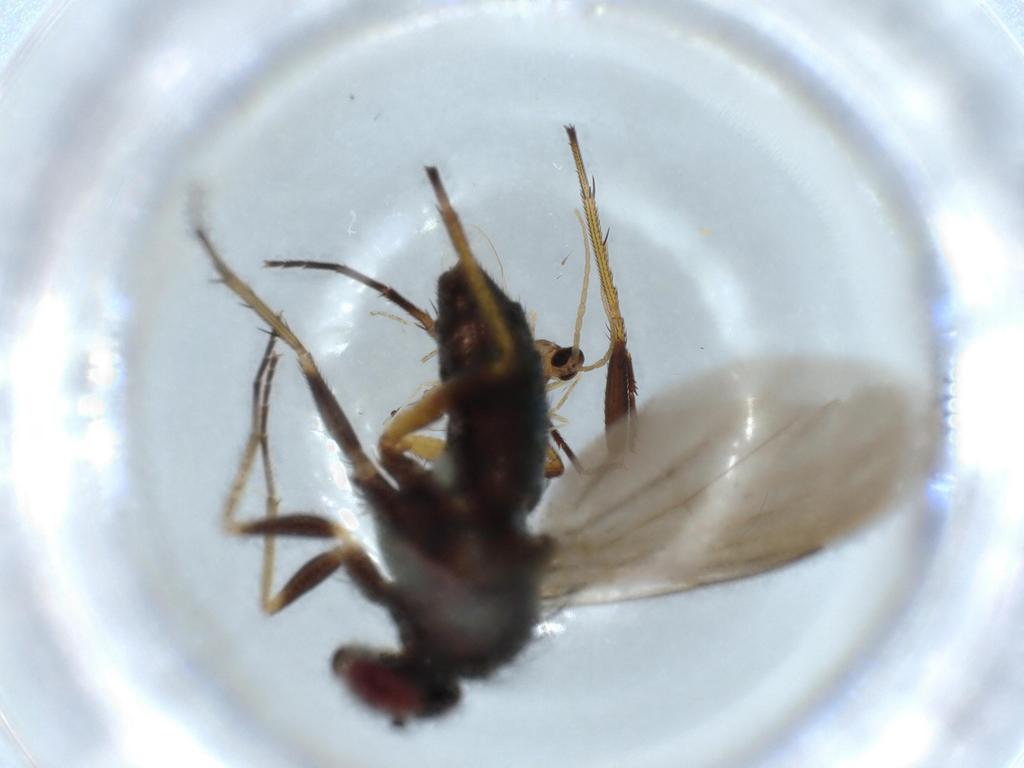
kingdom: Animalia
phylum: Arthropoda
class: Insecta
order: Diptera
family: Dolichopodidae
